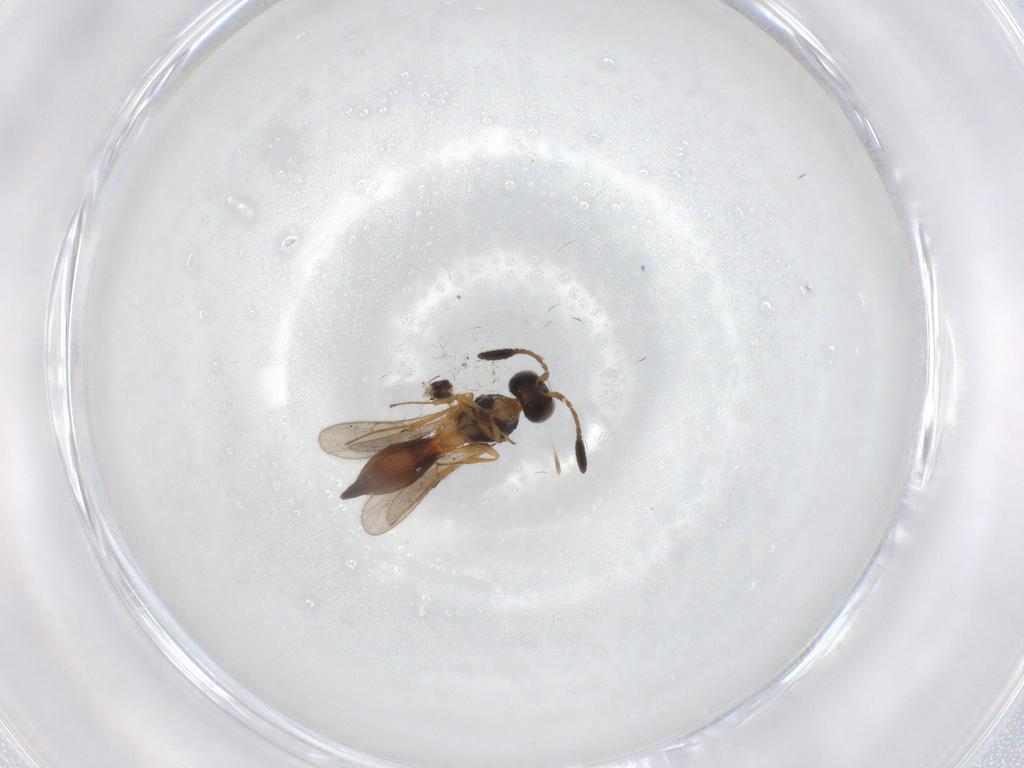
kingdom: Animalia
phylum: Arthropoda
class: Insecta
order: Hymenoptera
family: Scelionidae
